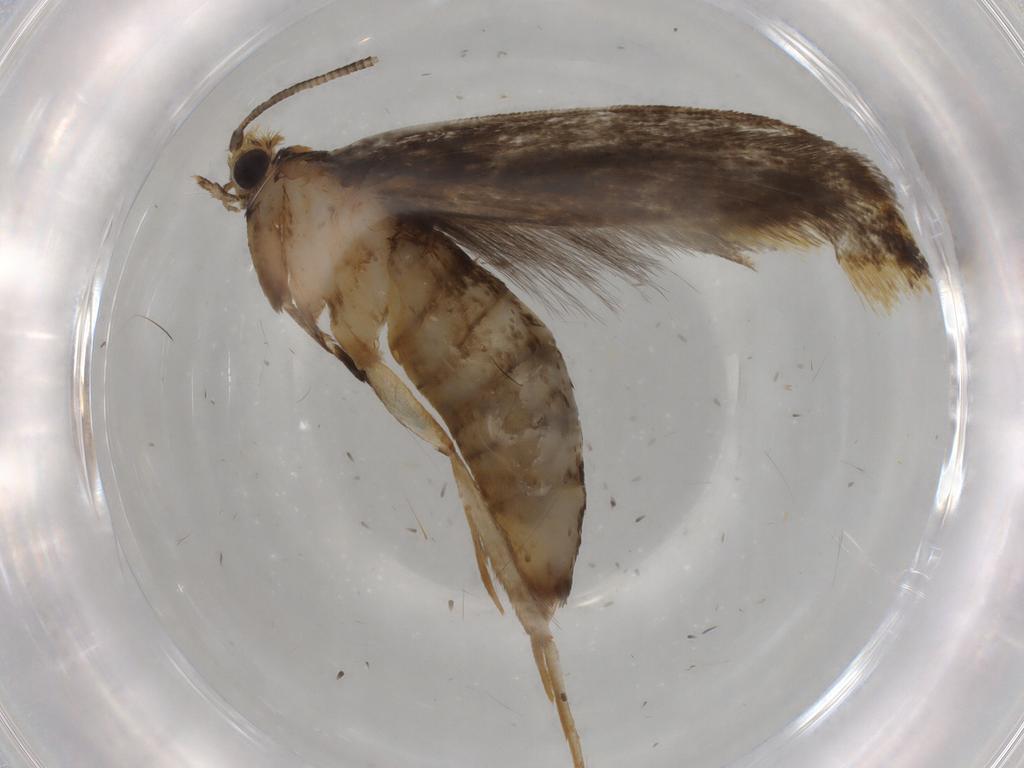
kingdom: Animalia
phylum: Arthropoda
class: Insecta
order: Lepidoptera
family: Tineidae
